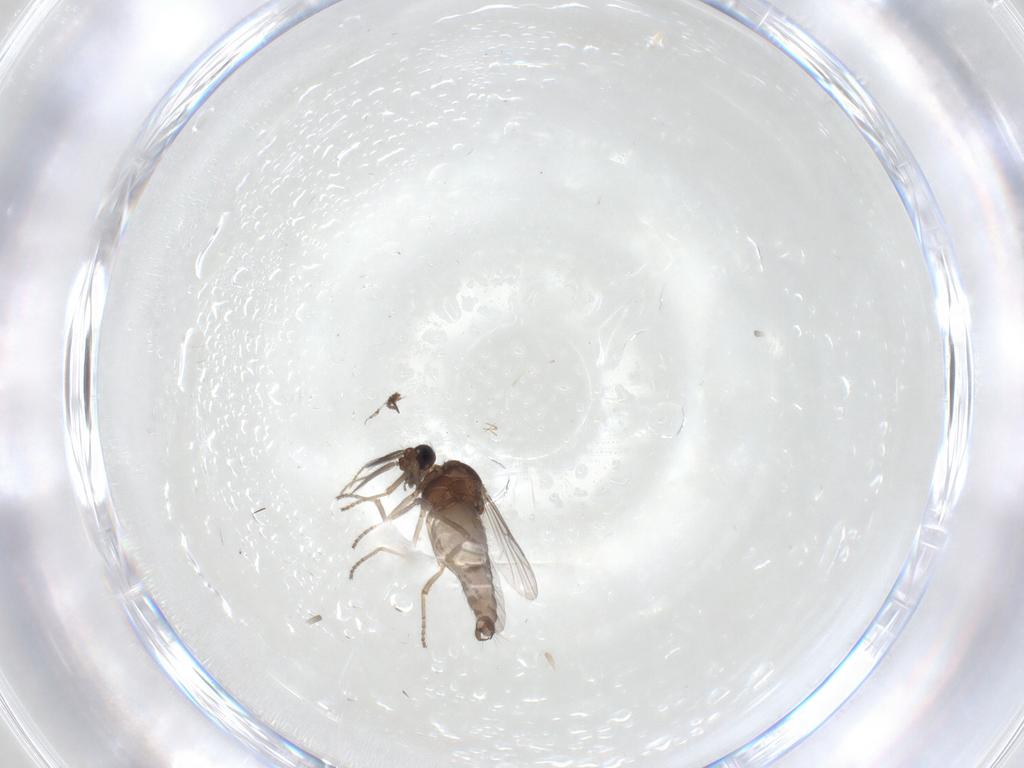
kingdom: Animalia
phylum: Arthropoda
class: Insecta
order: Diptera
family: Ceratopogonidae
